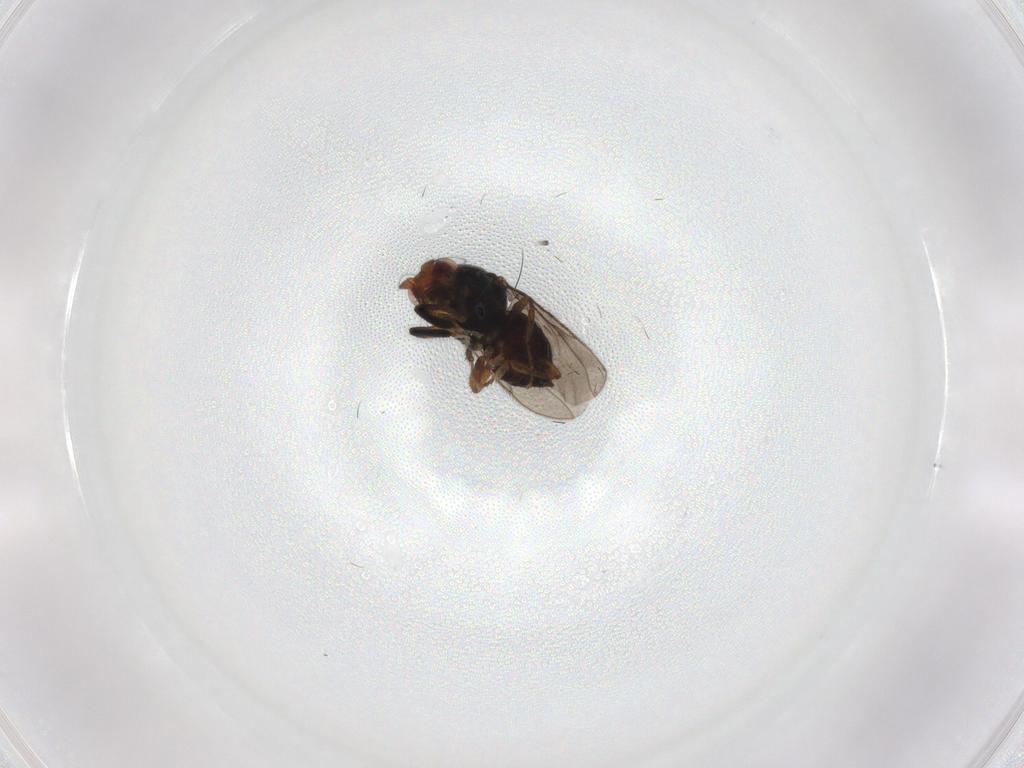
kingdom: Animalia
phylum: Arthropoda
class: Insecta
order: Diptera
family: Sphaeroceridae
